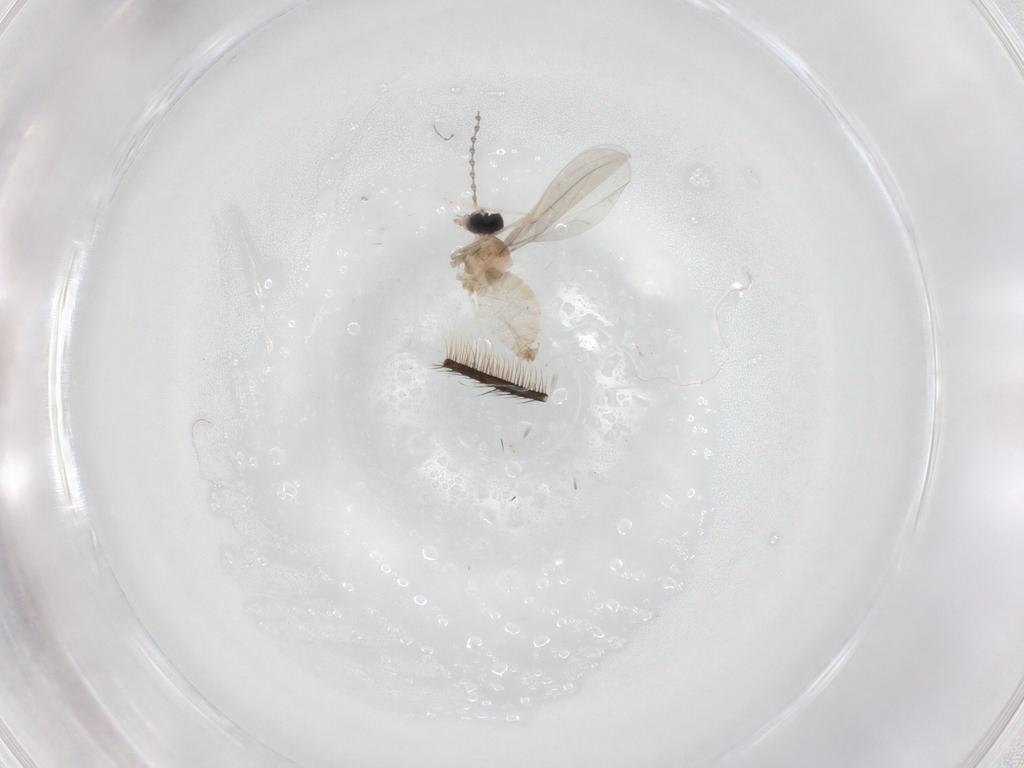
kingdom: Animalia
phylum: Arthropoda
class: Insecta
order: Diptera
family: Cecidomyiidae
